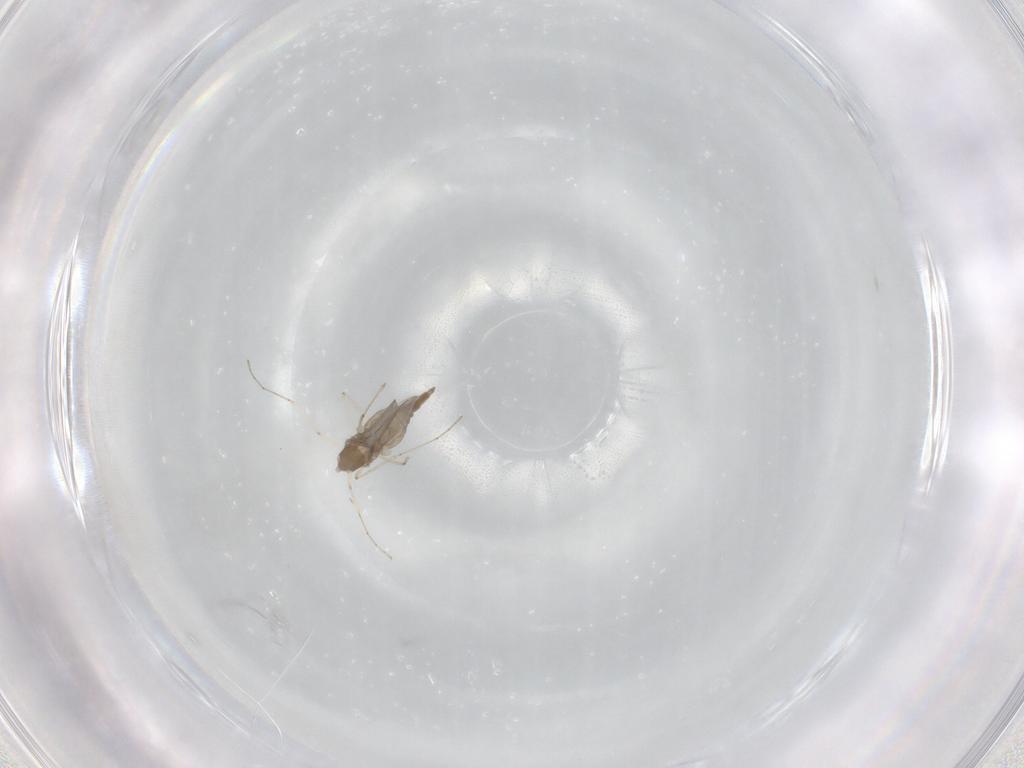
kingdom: Animalia
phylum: Arthropoda
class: Insecta
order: Diptera
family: Cecidomyiidae
